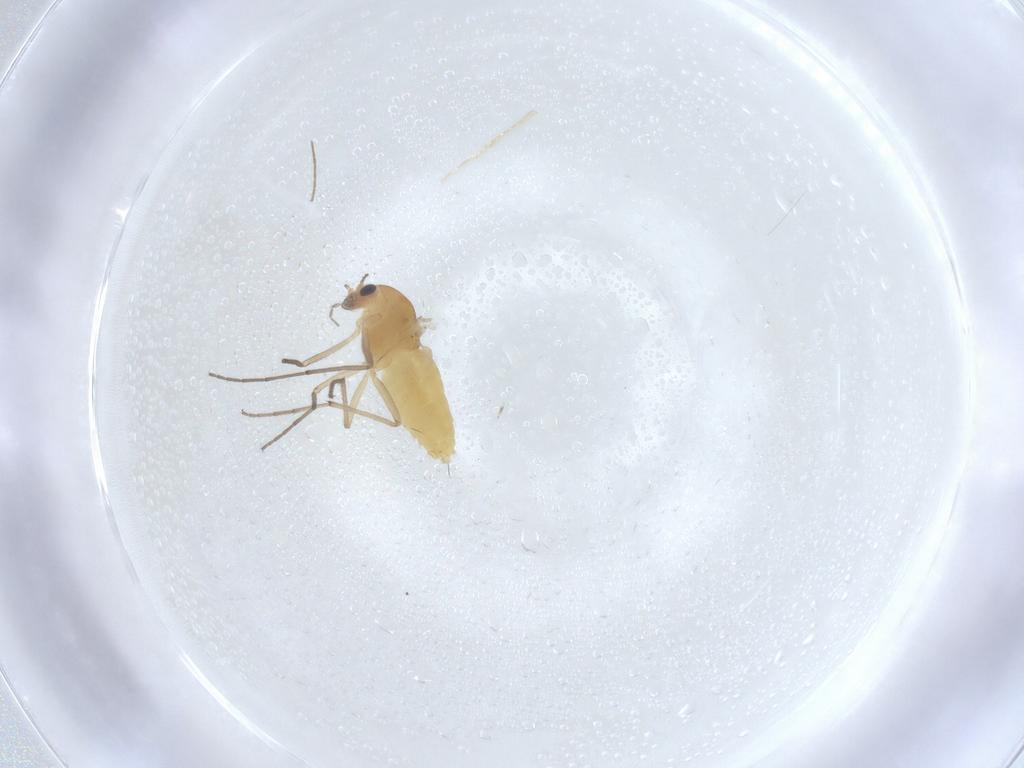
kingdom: Animalia
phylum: Arthropoda
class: Insecta
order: Diptera
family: Chironomidae
